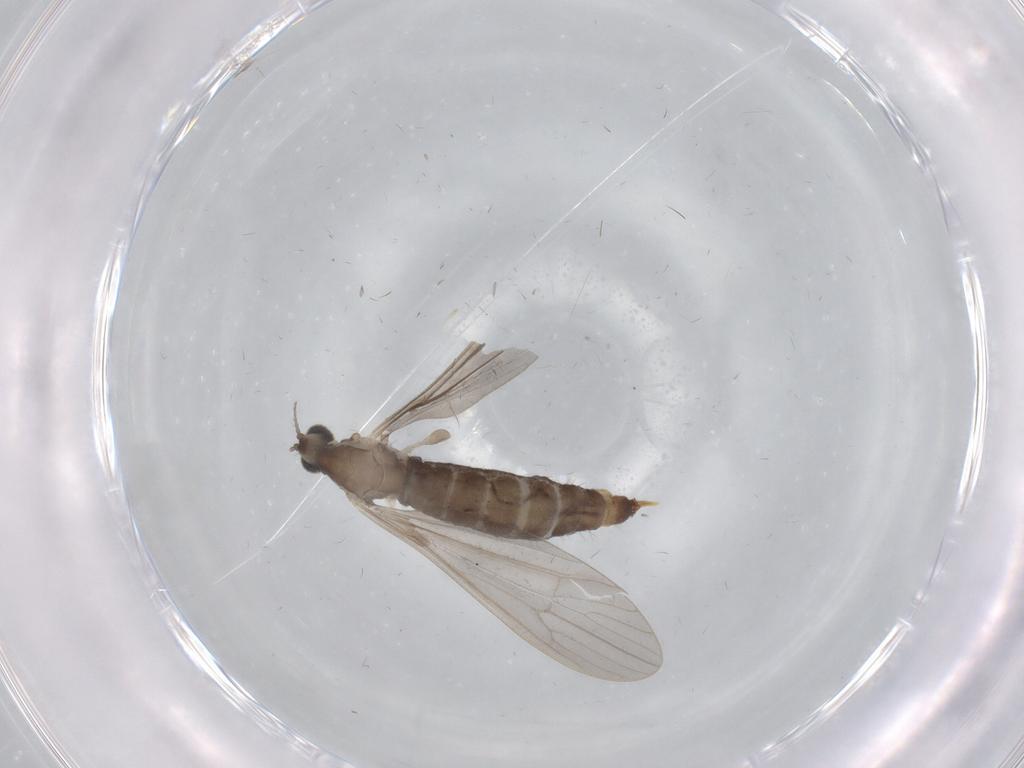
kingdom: Animalia
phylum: Arthropoda
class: Insecta
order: Diptera
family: Limoniidae
